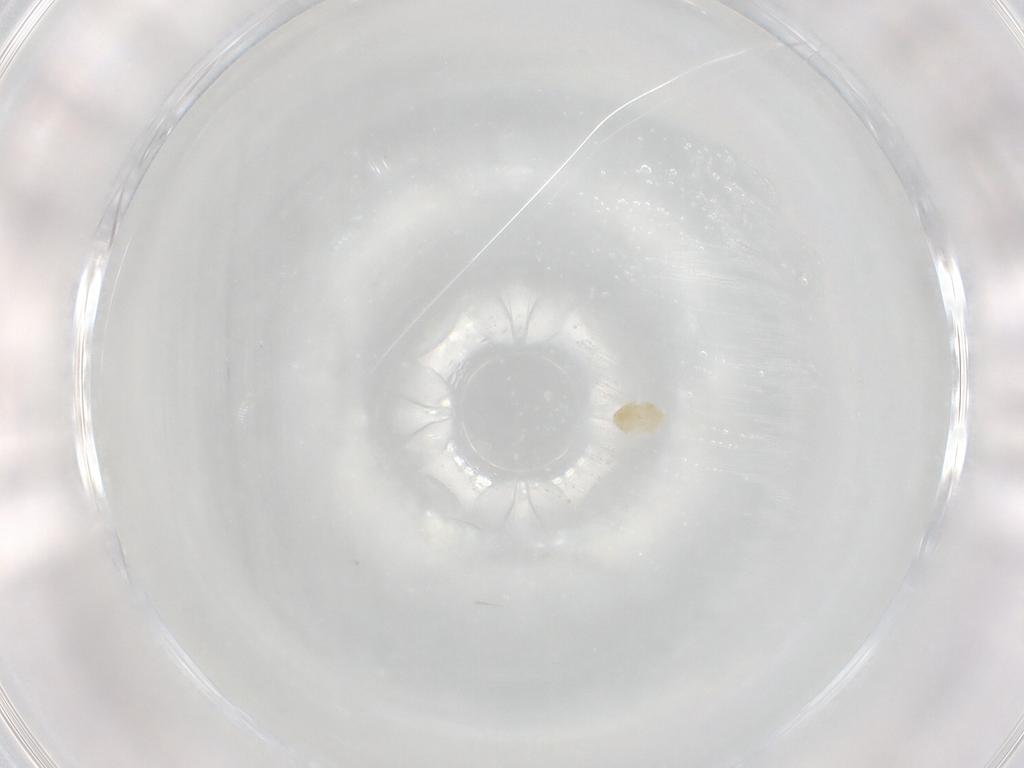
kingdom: Animalia
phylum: Arthropoda
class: Arachnida
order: Trombidiformes
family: Eupodidae
